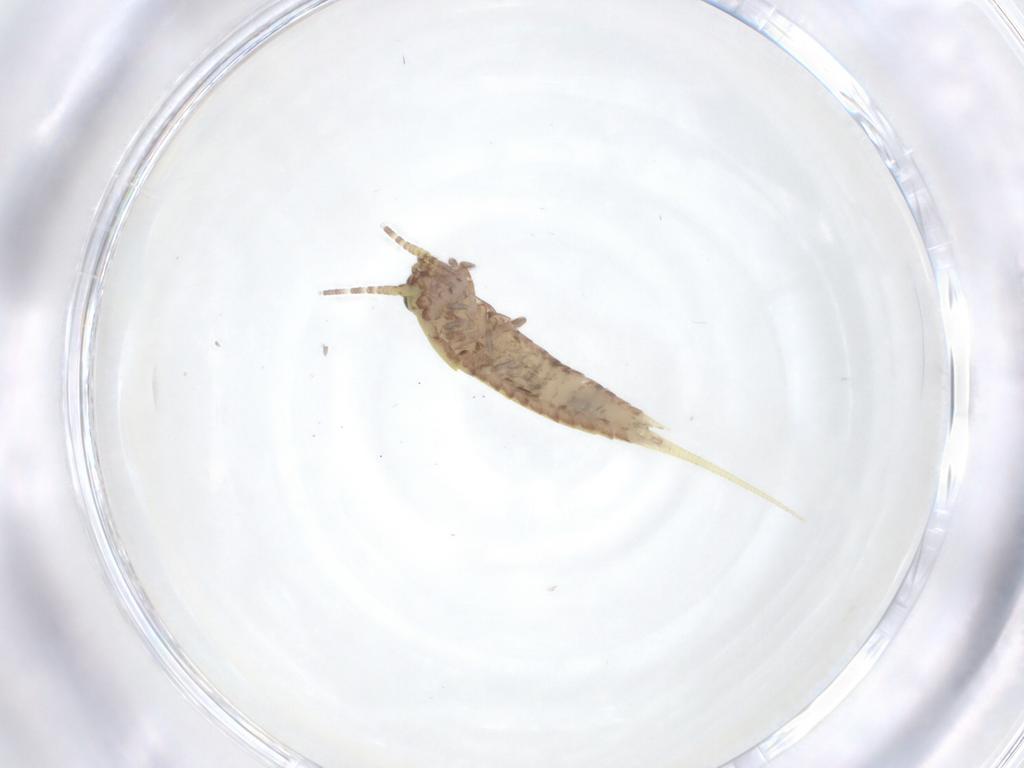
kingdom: Animalia
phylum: Arthropoda
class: Insecta
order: Archaeognatha
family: Meinertellidae
